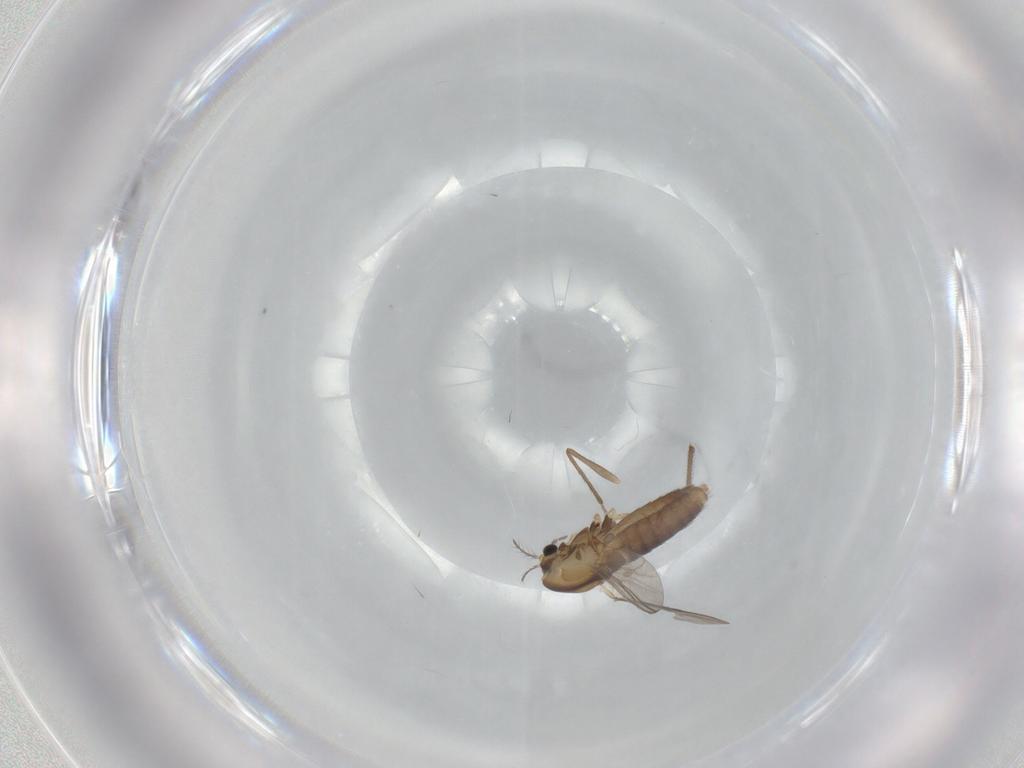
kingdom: Animalia
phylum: Arthropoda
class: Insecta
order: Diptera
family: Chironomidae
